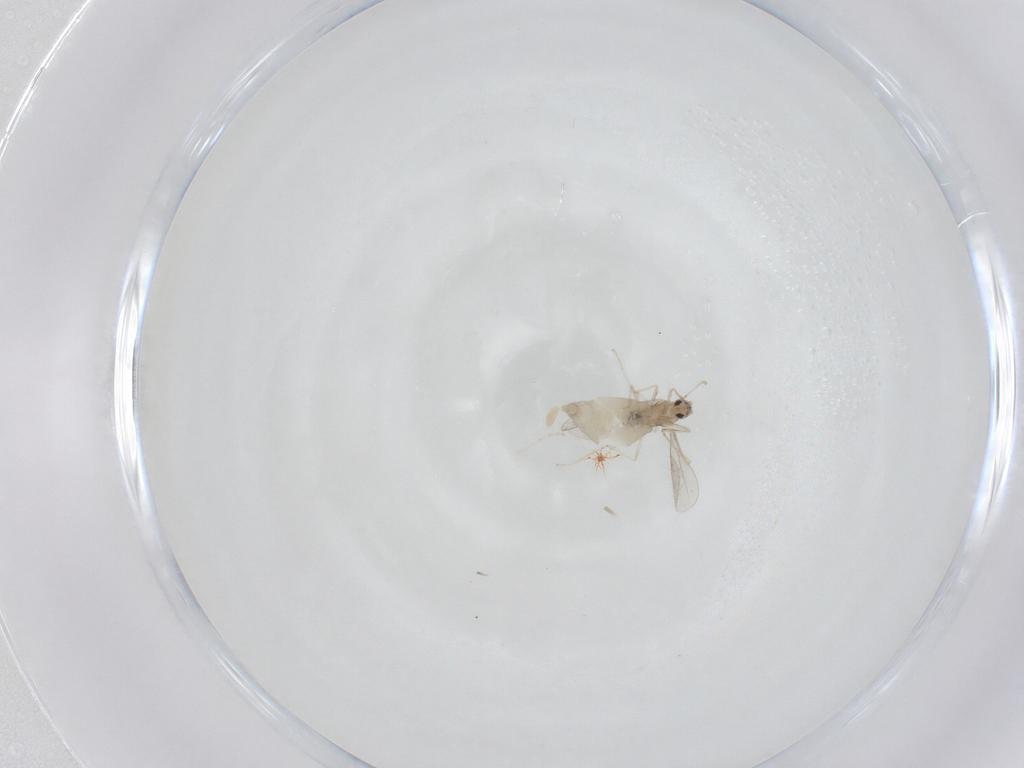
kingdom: Animalia
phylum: Arthropoda
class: Insecta
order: Diptera
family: Cecidomyiidae
